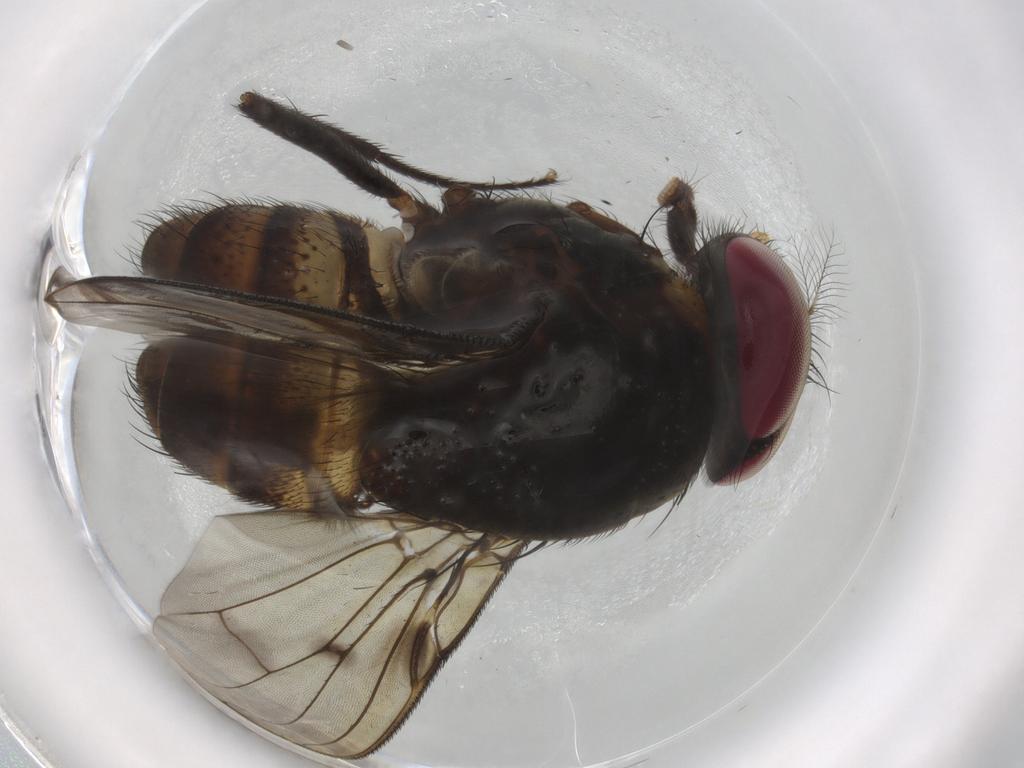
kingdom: Animalia
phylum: Arthropoda
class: Insecta
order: Diptera
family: Muscidae
